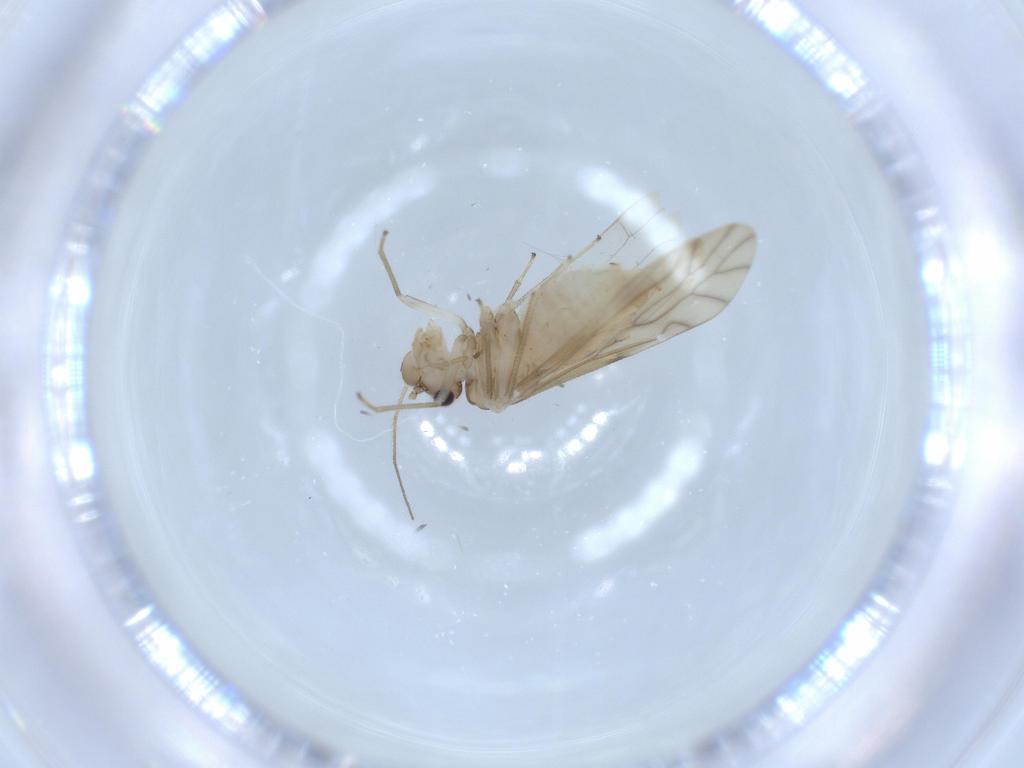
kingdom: Animalia
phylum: Arthropoda
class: Insecta
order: Psocodea
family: Caeciliusidae
